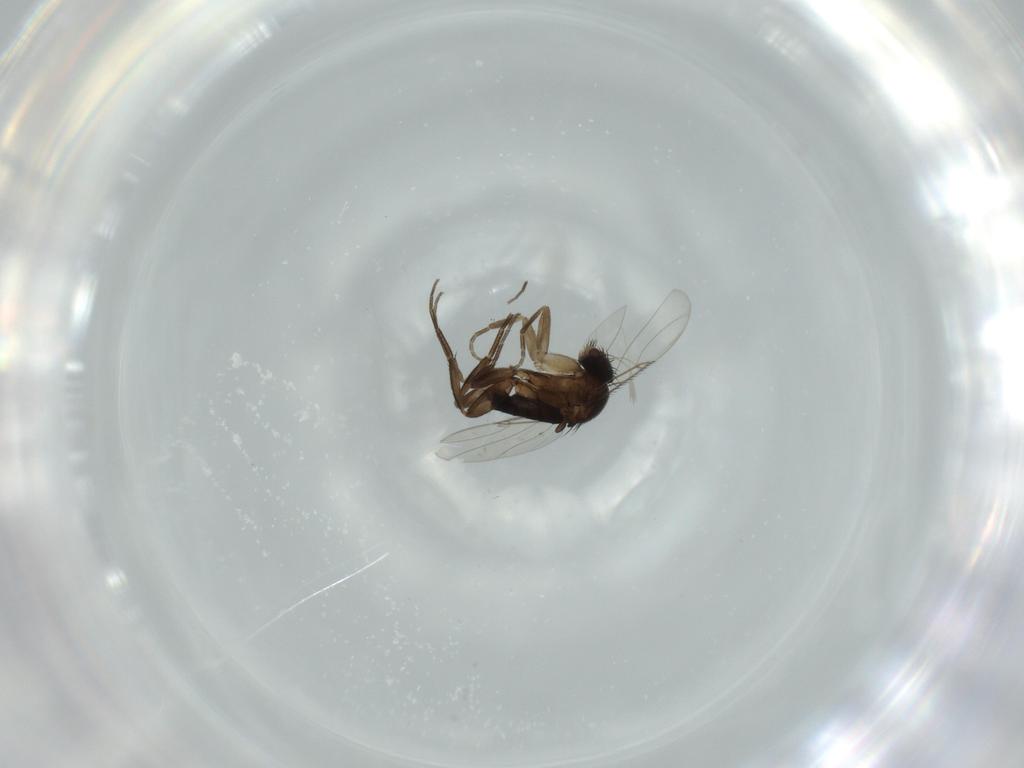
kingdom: Animalia
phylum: Arthropoda
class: Insecta
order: Diptera
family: Phoridae
